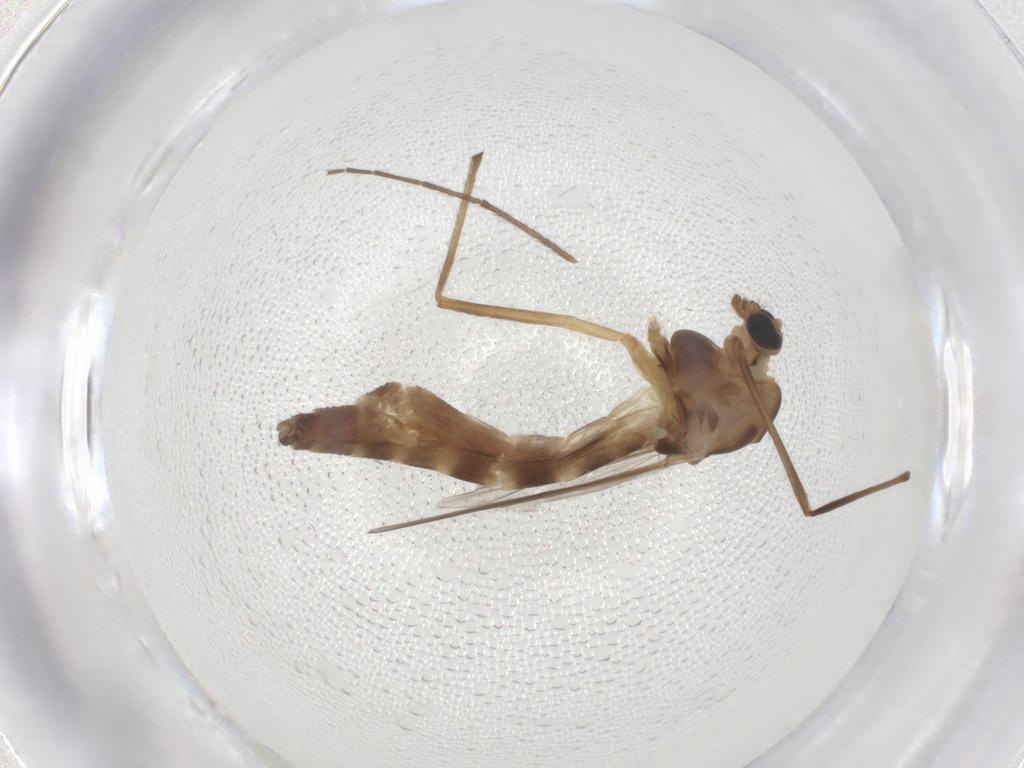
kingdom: Animalia
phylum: Arthropoda
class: Insecta
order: Diptera
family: Chironomidae
